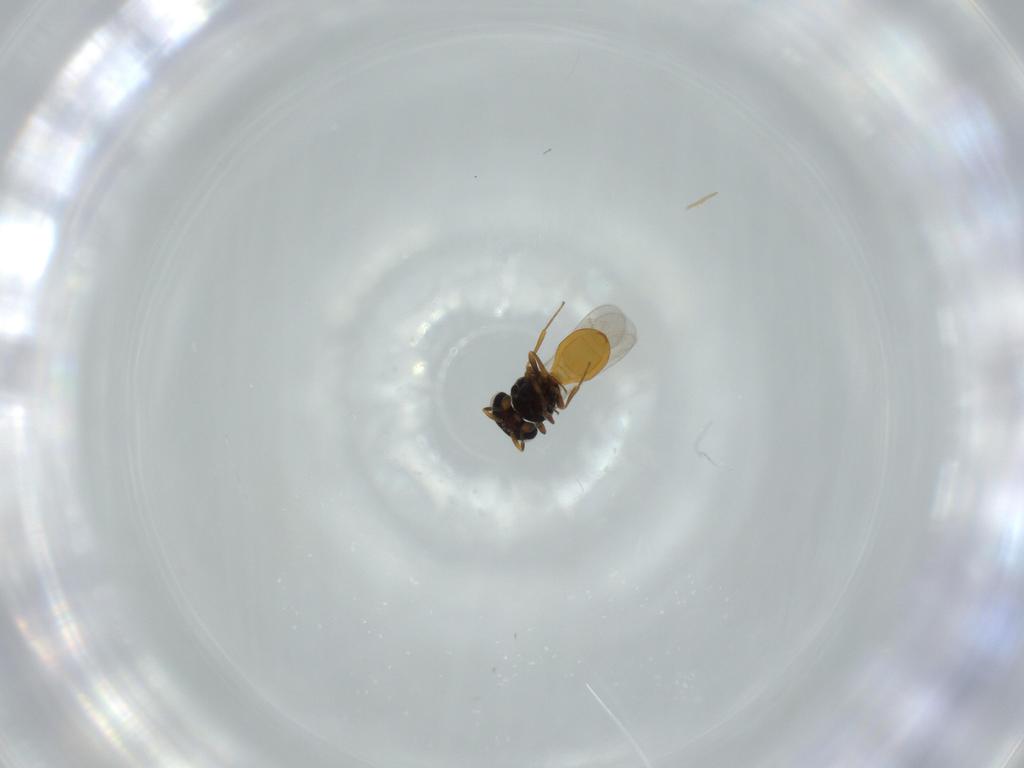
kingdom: Animalia
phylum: Arthropoda
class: Insecta
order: Hymenoptera
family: Scelionidae
